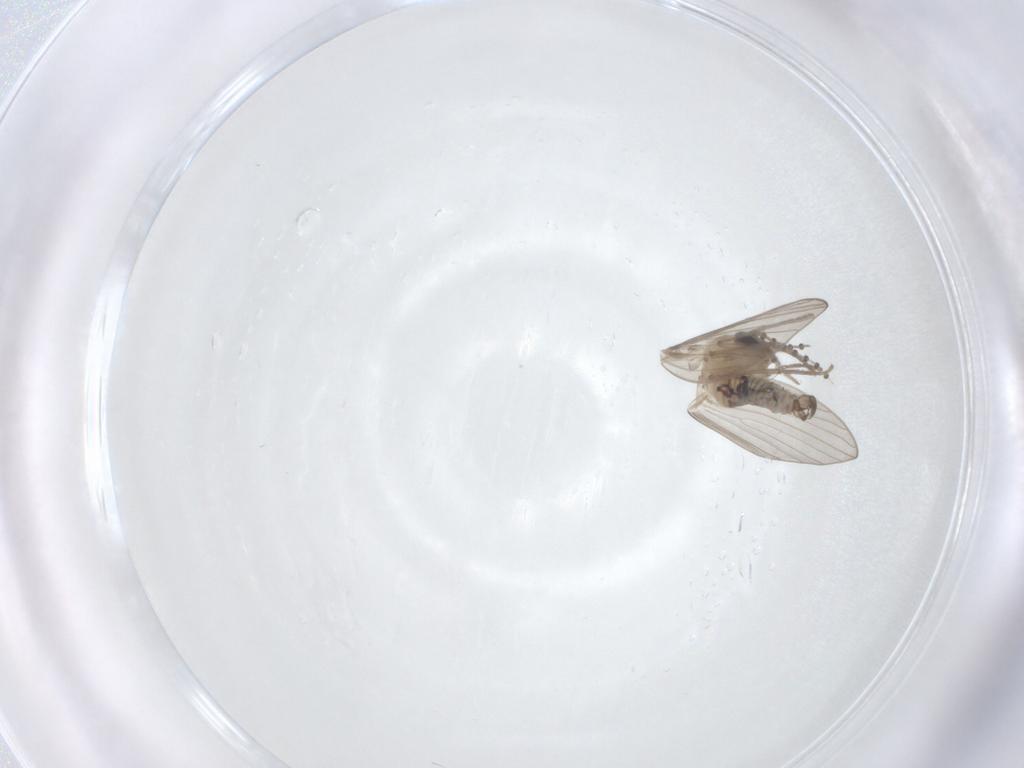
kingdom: Animalia
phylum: Arthropoda
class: Insecta
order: Diptera
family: Psychodidae
